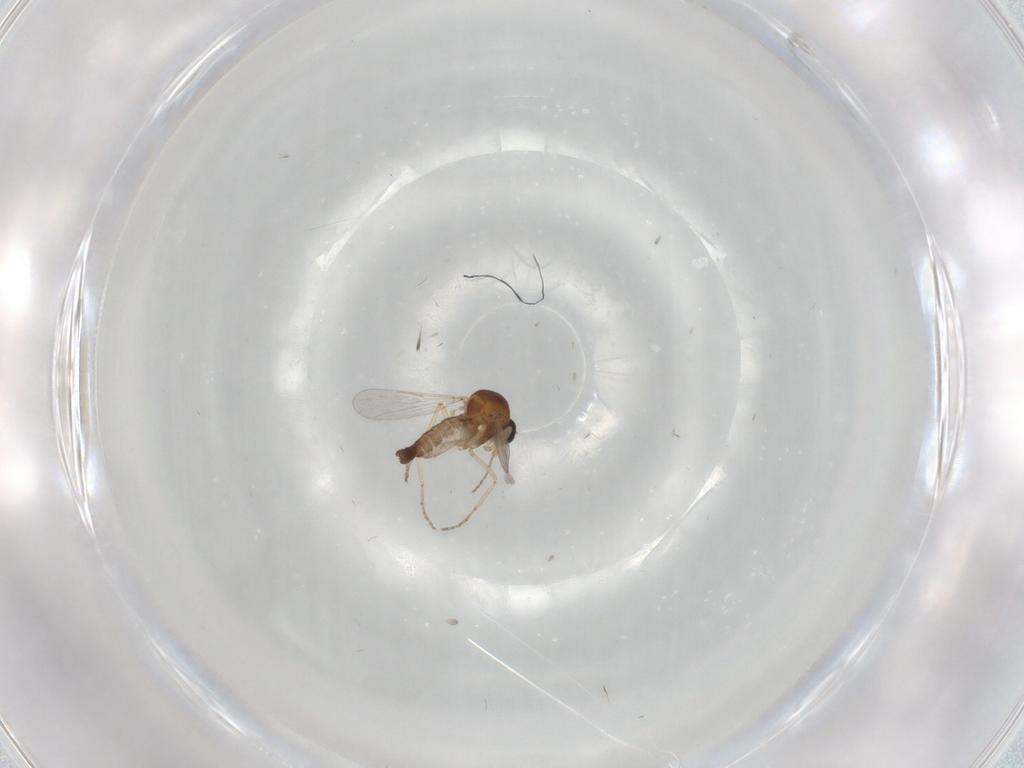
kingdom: Animalia
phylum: Arthropoda
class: Insecta
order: Diptera
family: Ceratopogonidae
